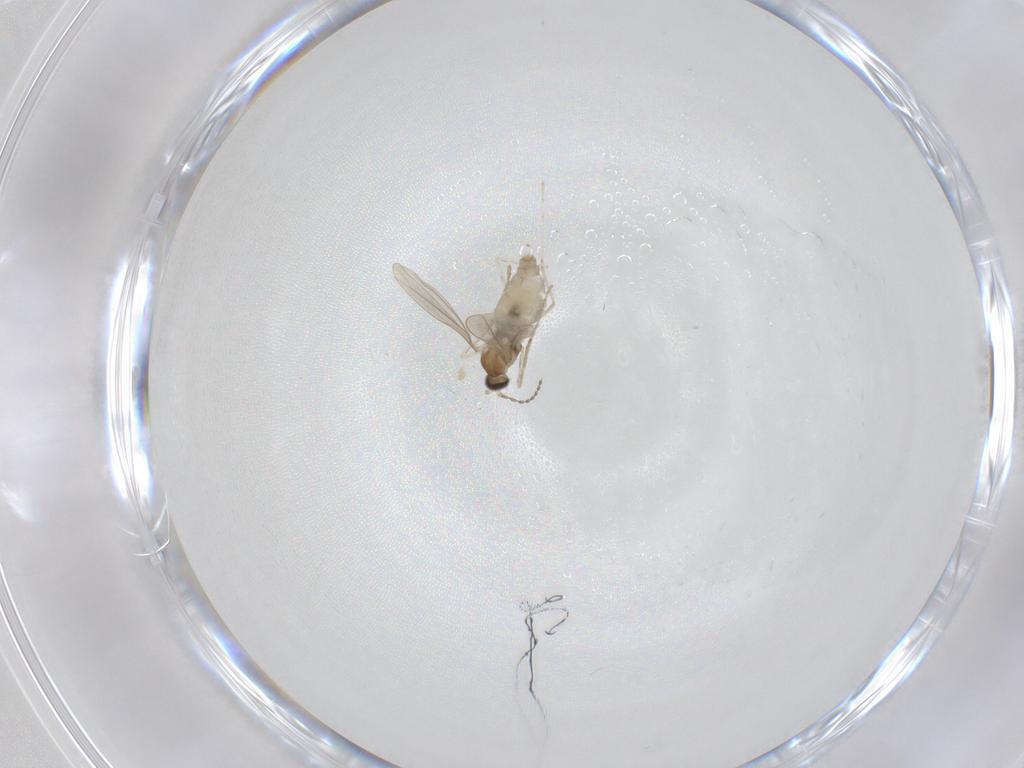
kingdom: Animalia
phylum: Arthropoda
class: Insecta
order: Diptera
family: Cecidomyiidae
